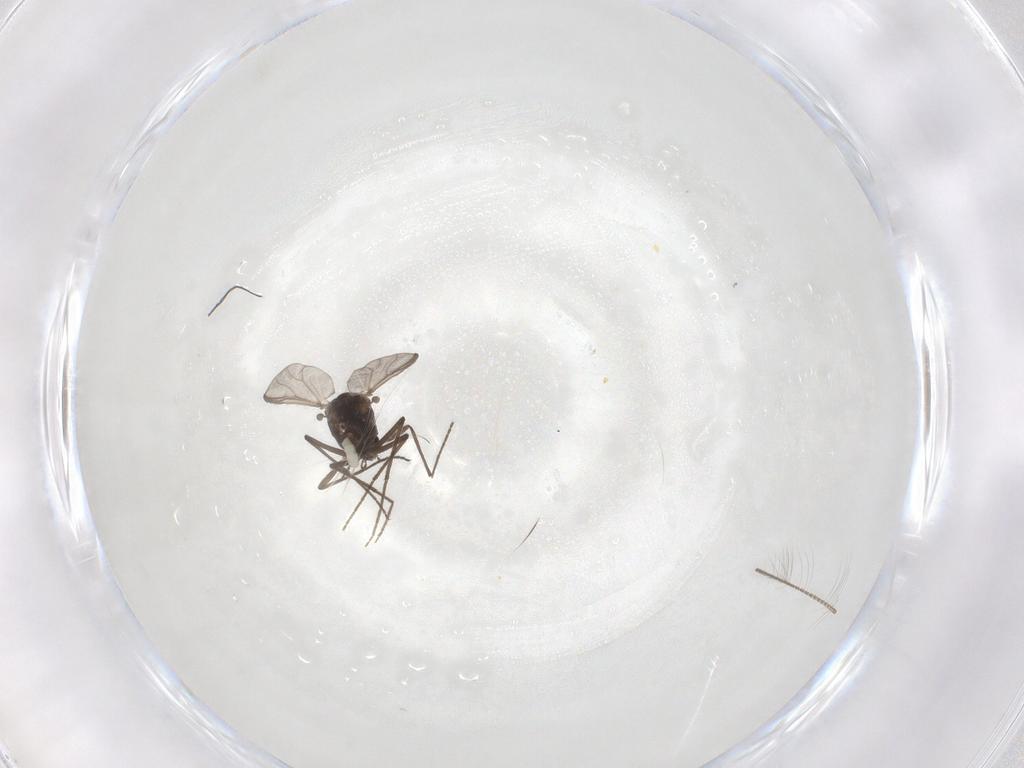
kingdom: Animalia
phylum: Arthropoda
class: Insecta
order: Diptera
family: Chironomidae
